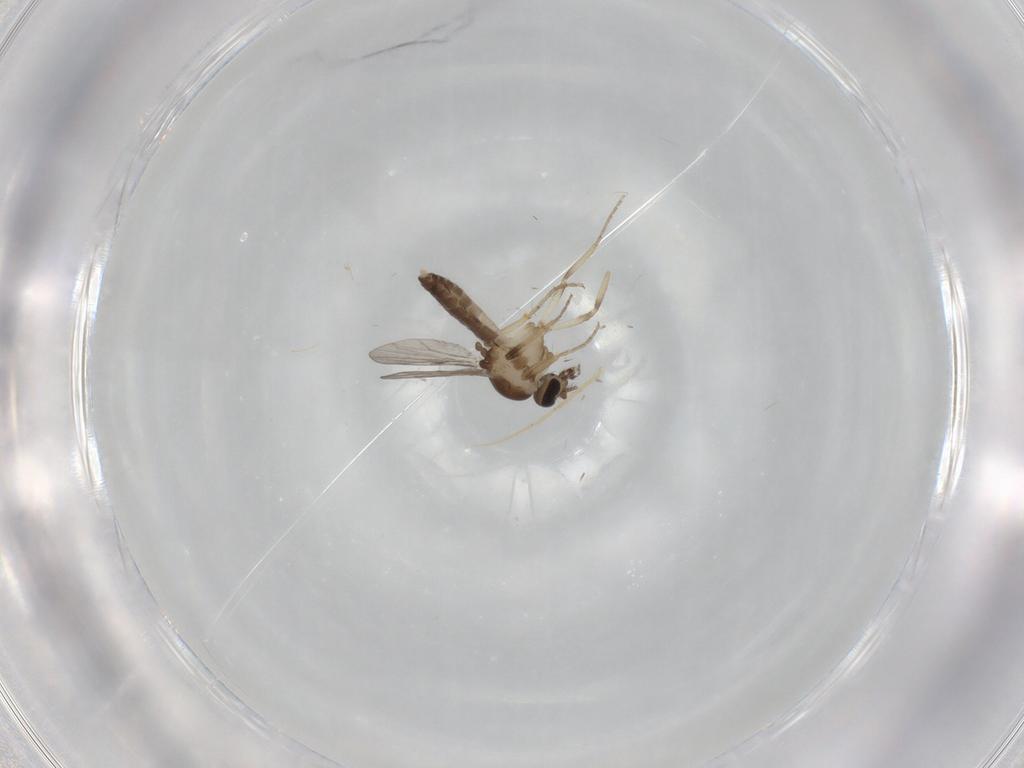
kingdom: Animalia
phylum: Arthropoda
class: Insecta
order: Diptera
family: Ceratopogonidae
